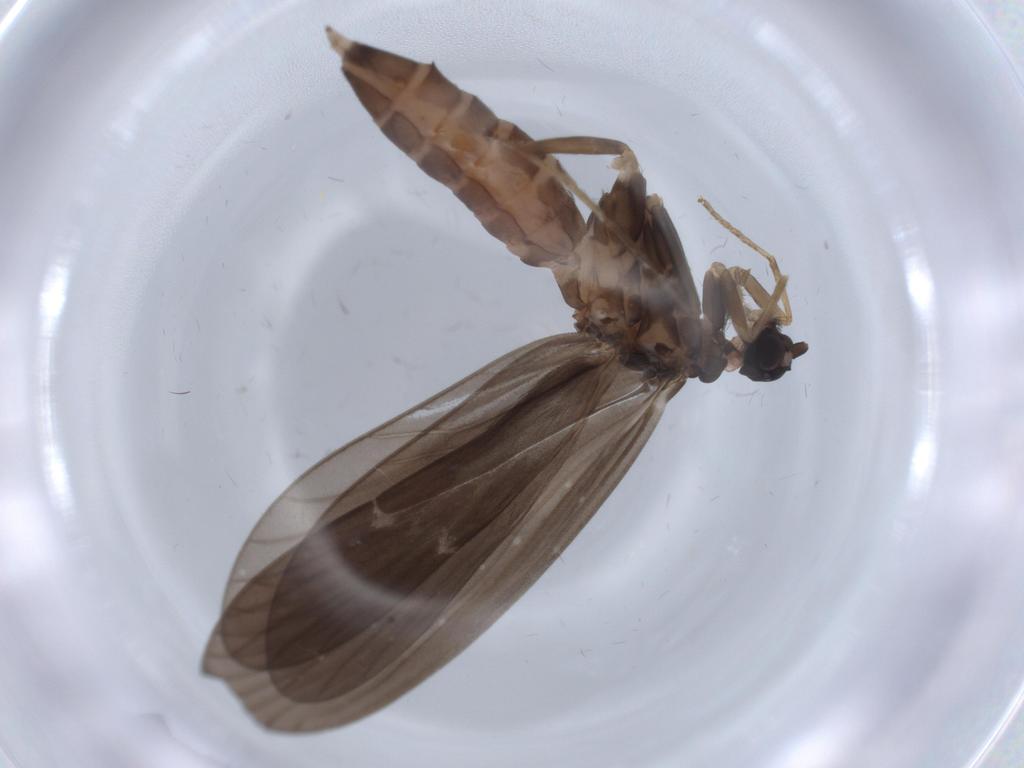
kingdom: Animalia
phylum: Arthropoda
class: Insecta
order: Trichoptera
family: Ptilocolepidae
